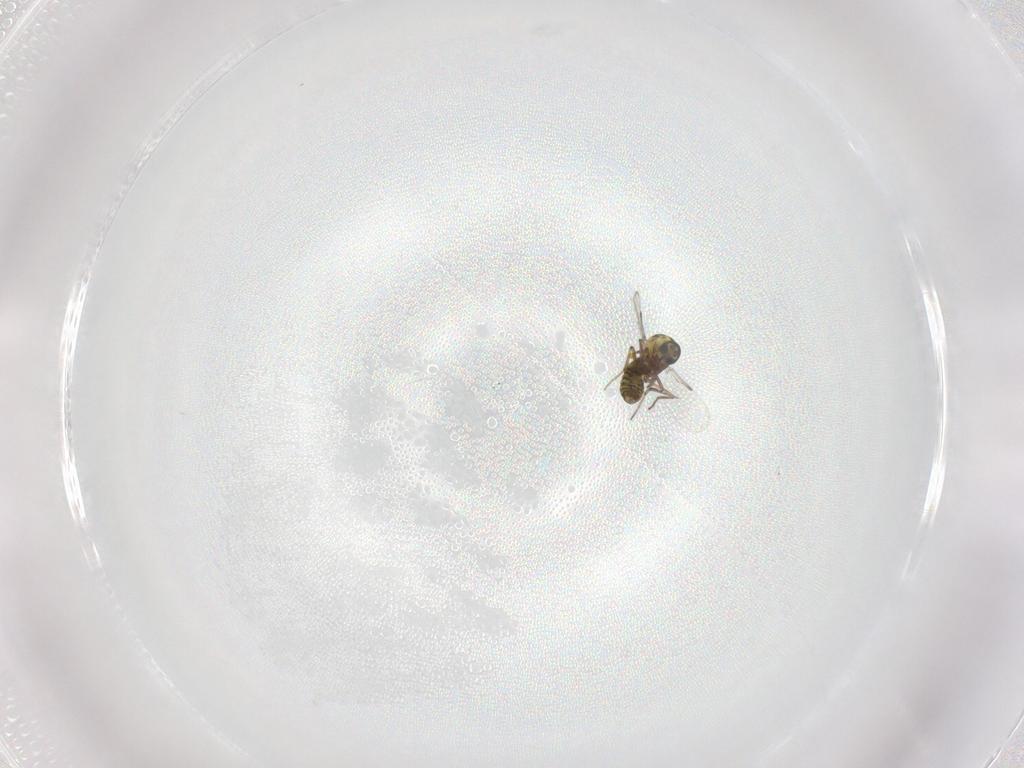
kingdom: Animalia
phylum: Arthropoda
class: Insecta
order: Diptera
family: Ceratopogonidae
